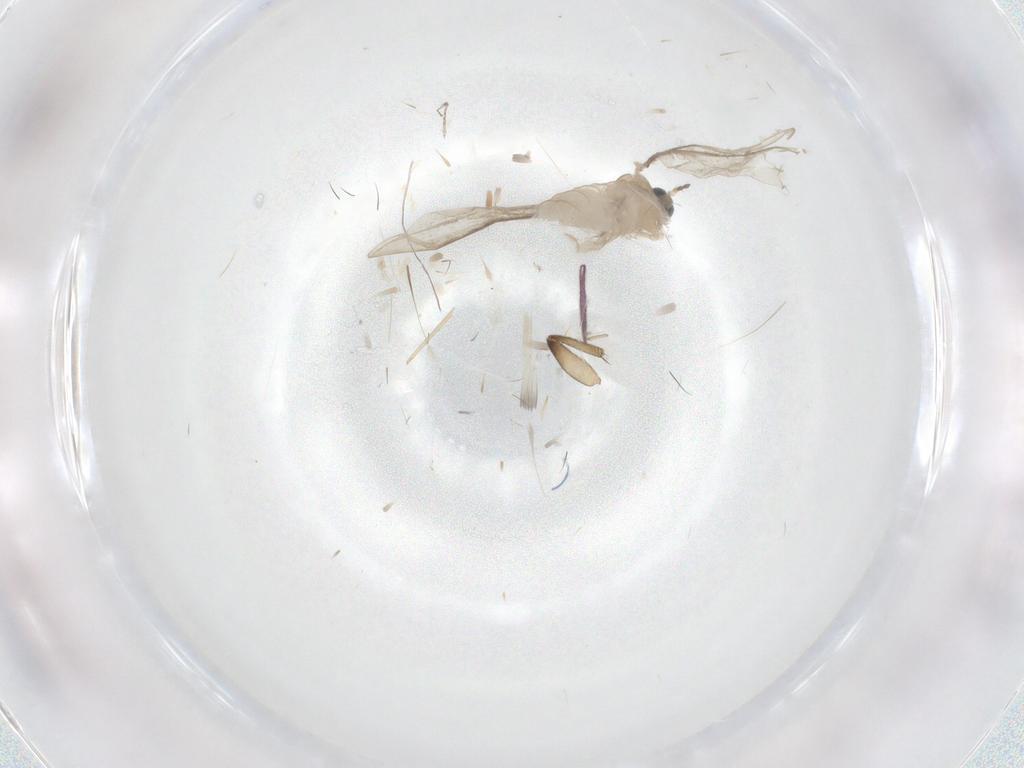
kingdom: Animalia
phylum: Arthropoda
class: Insecta
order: Diptera
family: Cecidomyiidae
